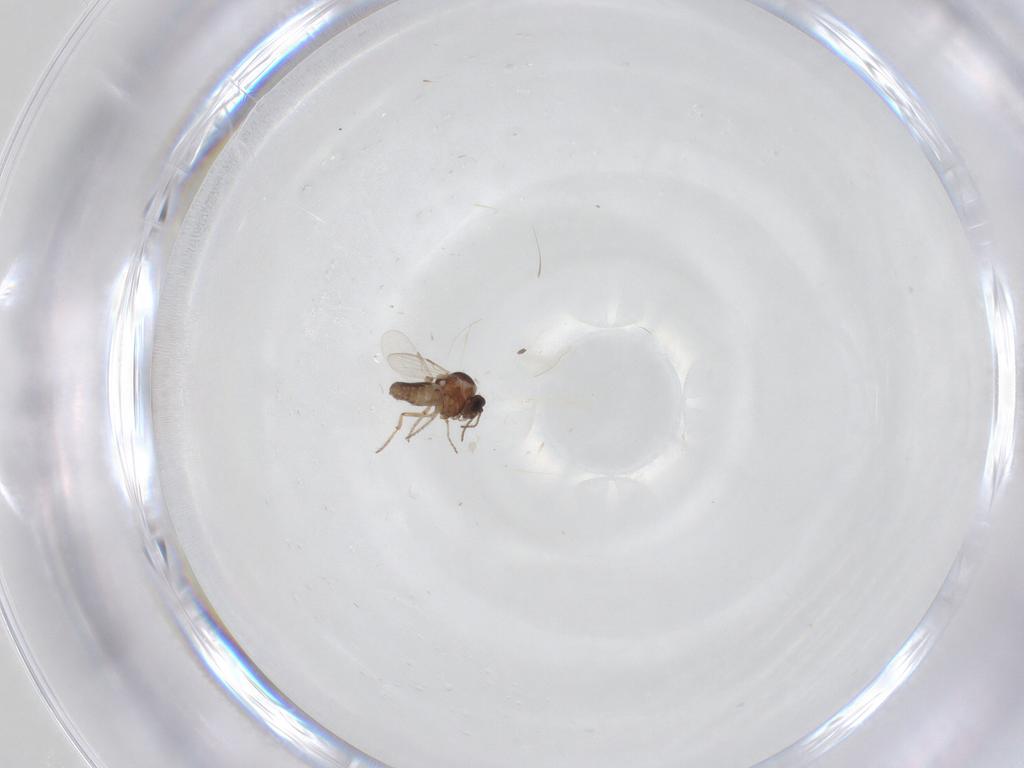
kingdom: Animalia
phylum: Arthropoda
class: Insecta
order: Diptera
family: Ceratopogonidae
